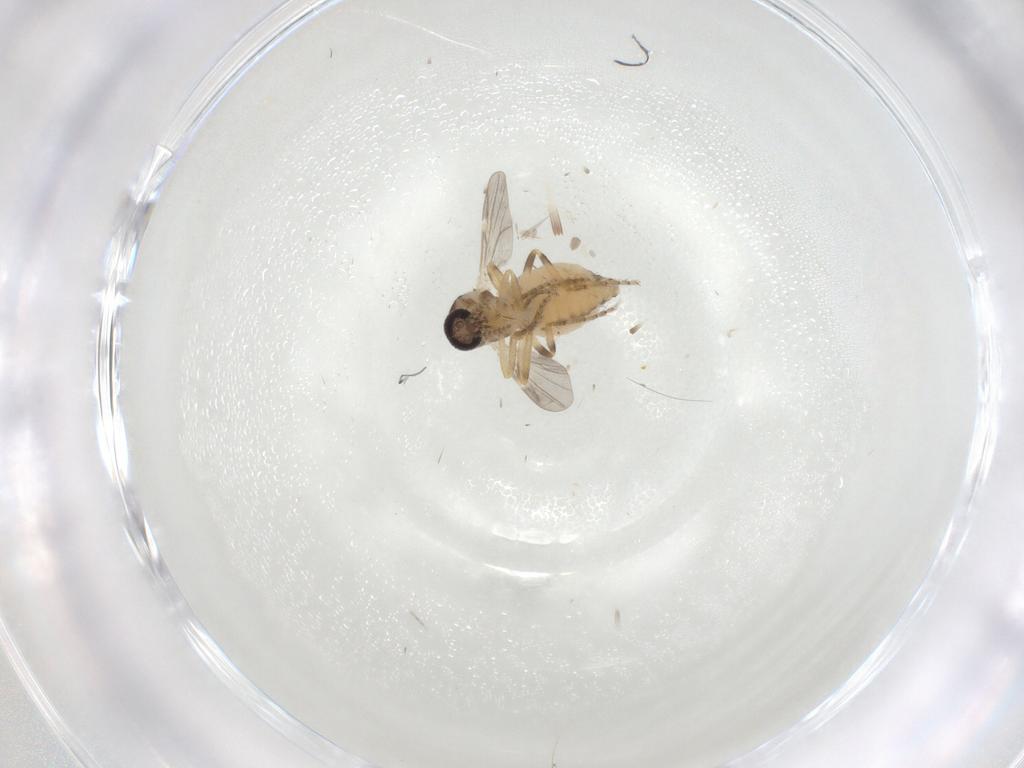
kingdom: Animalia
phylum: Arthropoda
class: Insecta
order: Diptera
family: Ceratopogonidae
